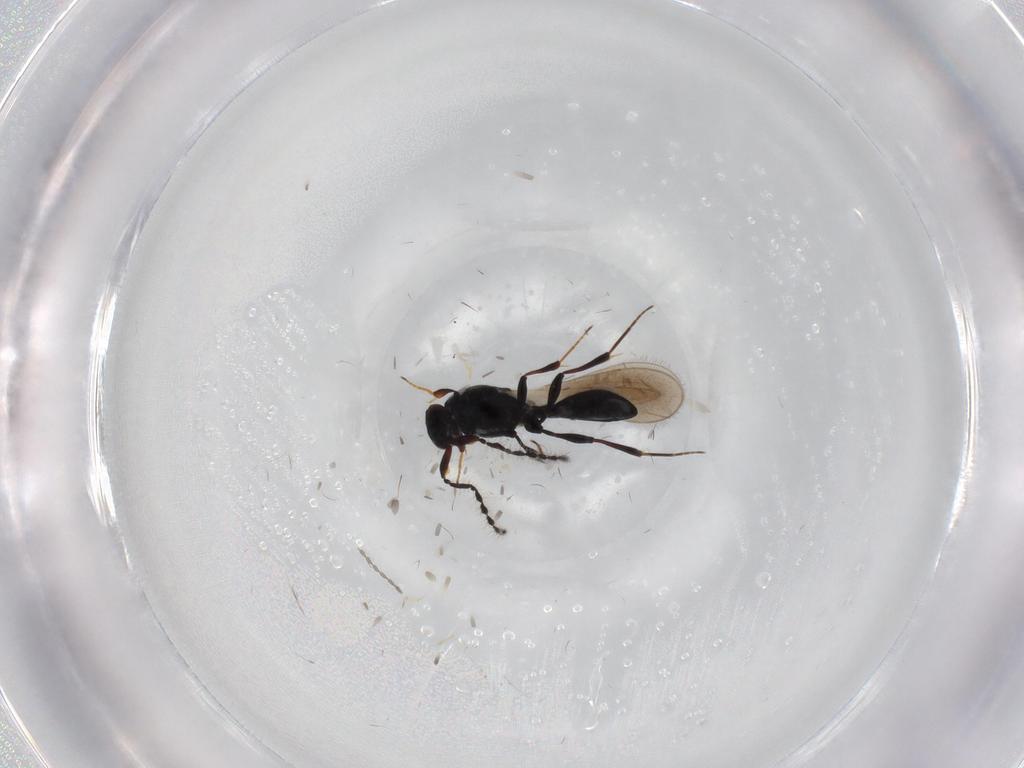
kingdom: Animalia
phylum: Arthropoda
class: Insecta
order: Hymenoptera
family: Platygastridae
